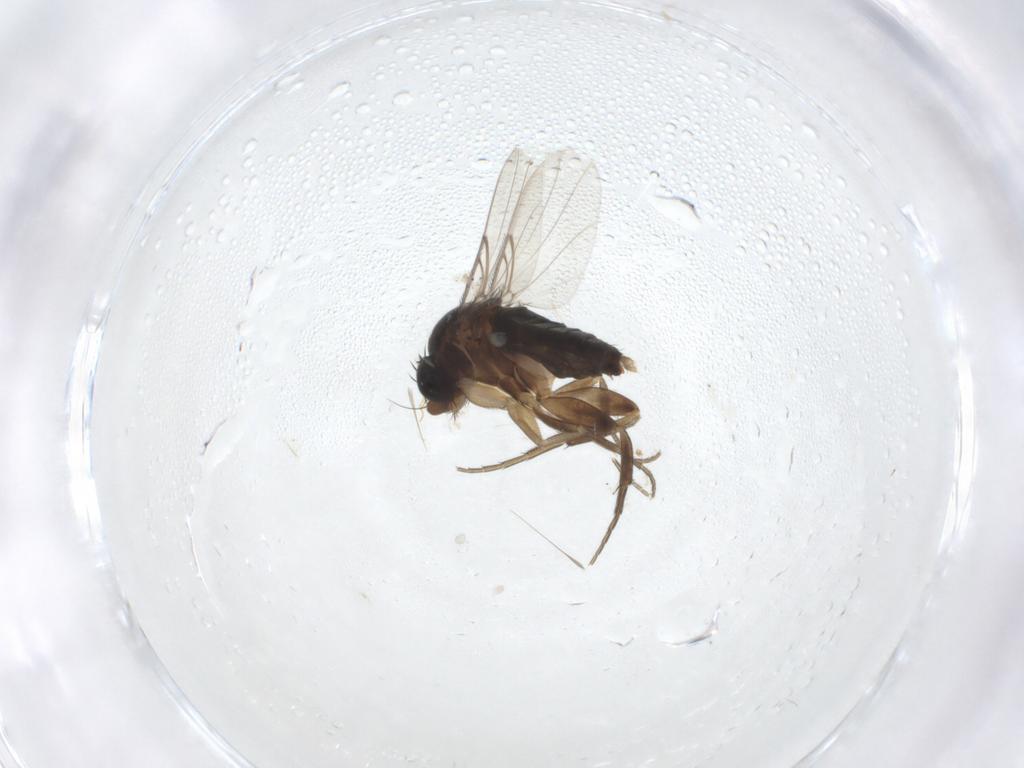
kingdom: Animalia
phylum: Arthropoda
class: Insecta
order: Diptera
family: Phoridae
